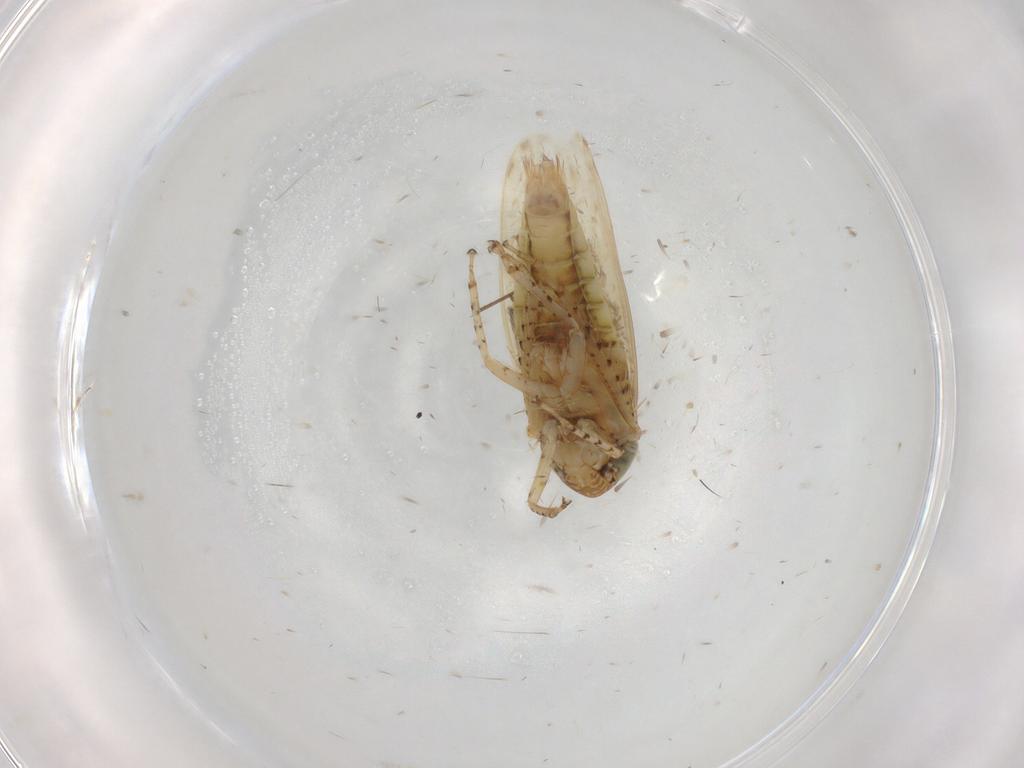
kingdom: Animalia
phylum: Arthropoda
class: Insecta
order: Hemiptera
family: Cicadellidae
